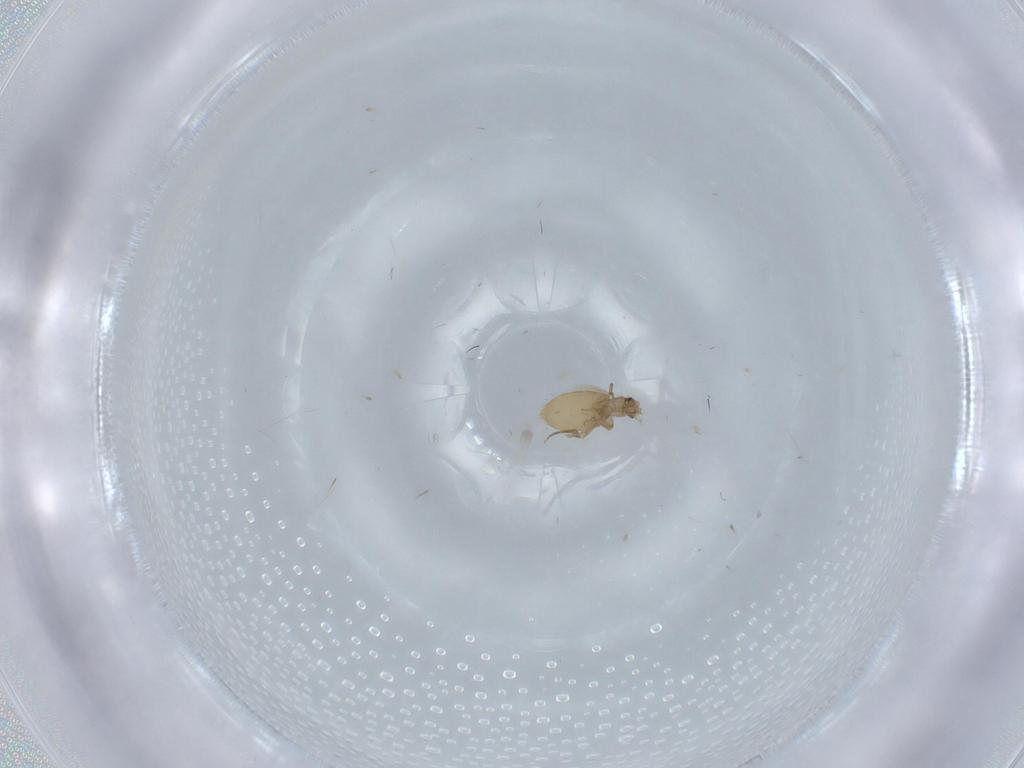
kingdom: Animalia
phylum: Arthropoda
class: Insecta
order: Diptera
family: Phoridae
